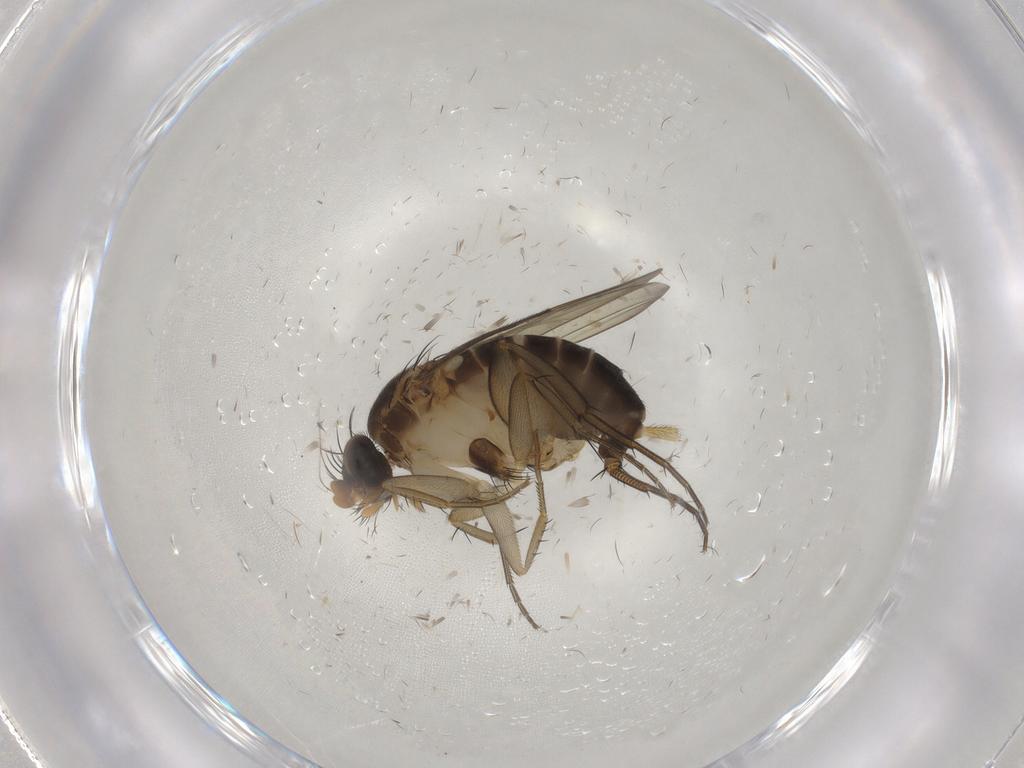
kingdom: Animalia
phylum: Arthropoda
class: Insecta
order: Diptera
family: Phoridae
